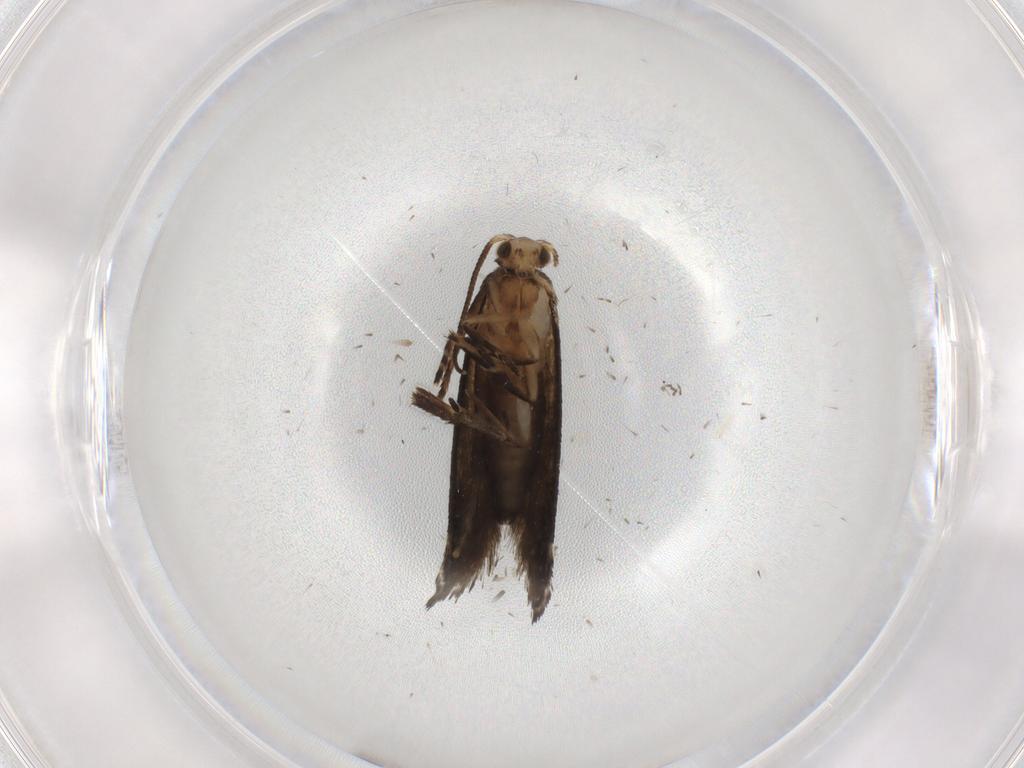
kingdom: Animalia
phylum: Arthropoda
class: Insecta
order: Lepidoptera
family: Crambidae
